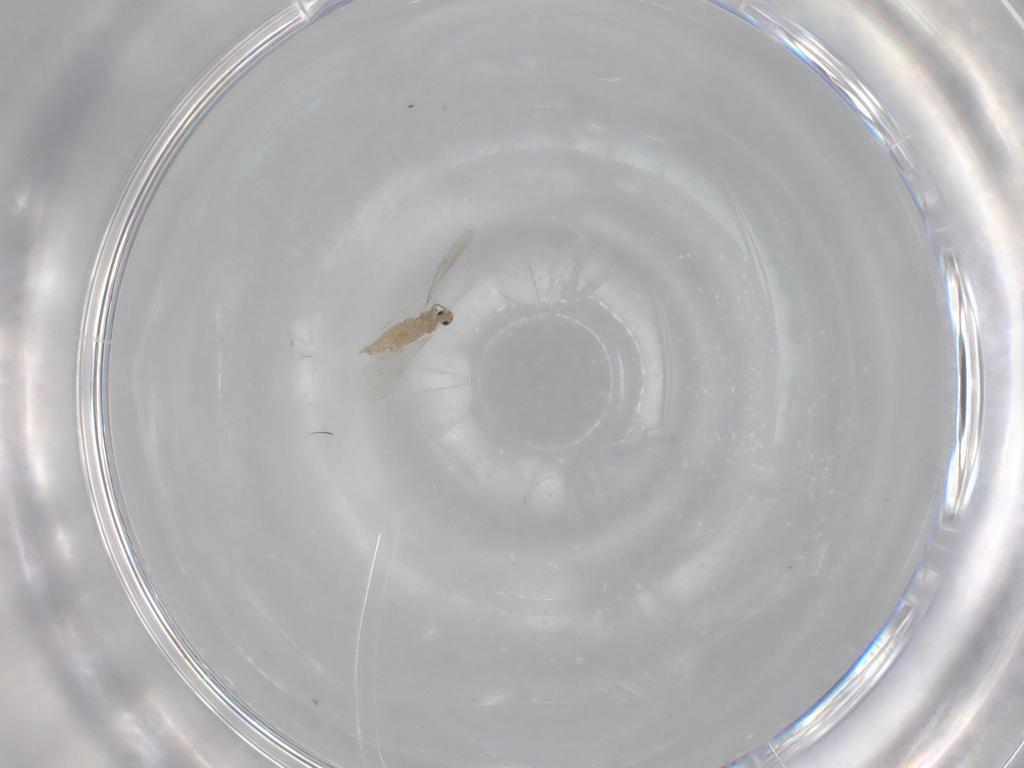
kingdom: Animalia
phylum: Arthropoda
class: Insecta
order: Diptera
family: Cecidomyiidae
